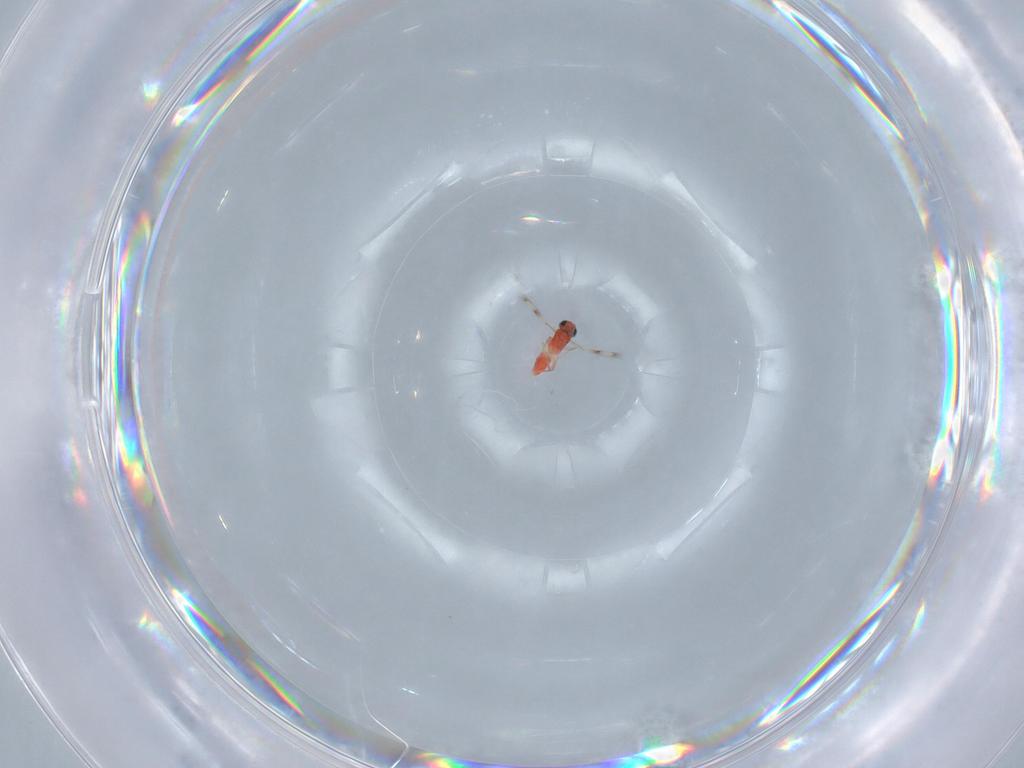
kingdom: Animalia
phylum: Arthropoda
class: Insecta
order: Hymenoptera
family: Trichogrammatidae
